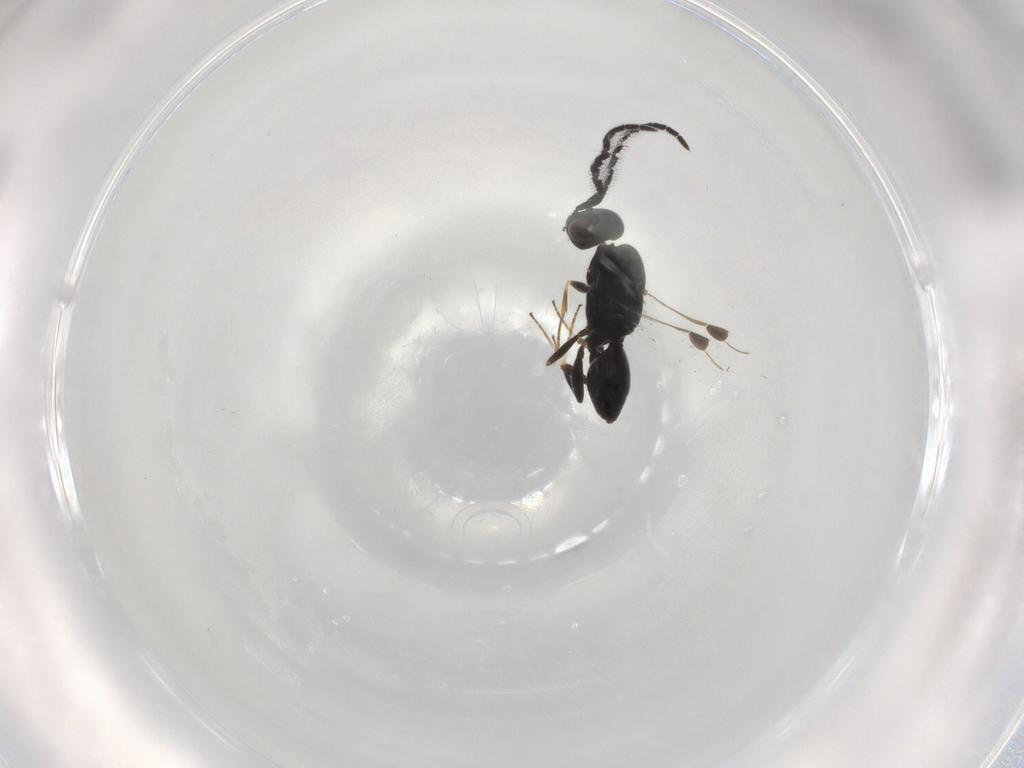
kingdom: Animalia
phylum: Arthropoda
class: Insecta
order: Hymenoptera
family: Megaspilidae
